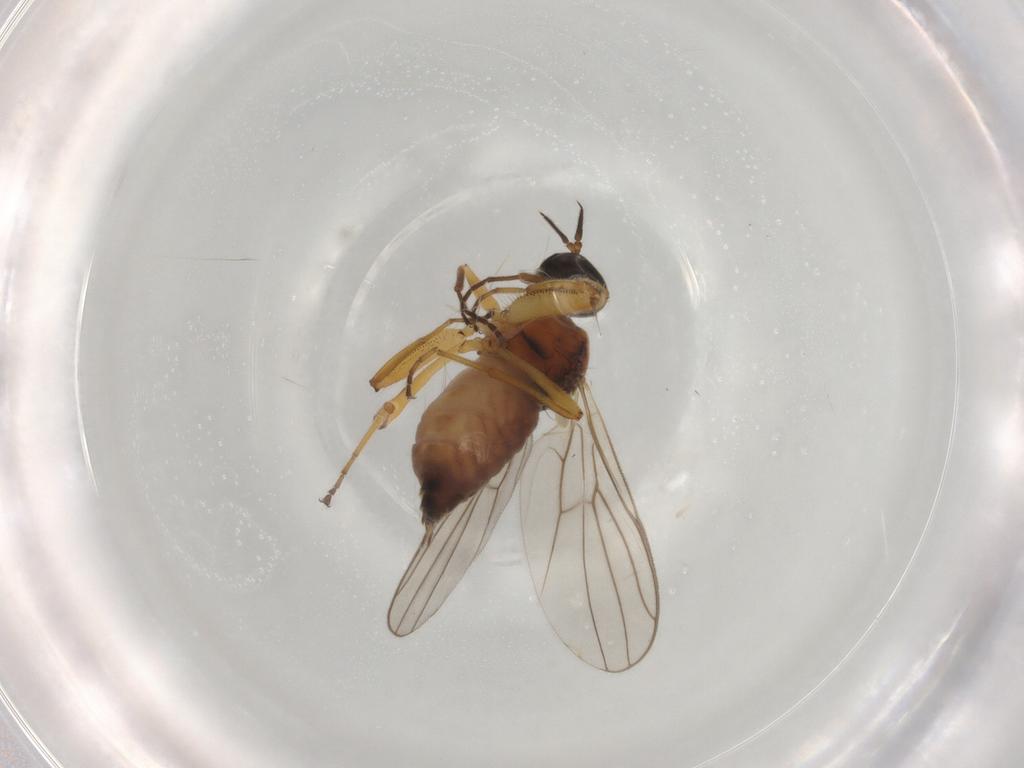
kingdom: Animalia
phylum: Arthropoda
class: Insecta
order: Diptera
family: Hybotidae
